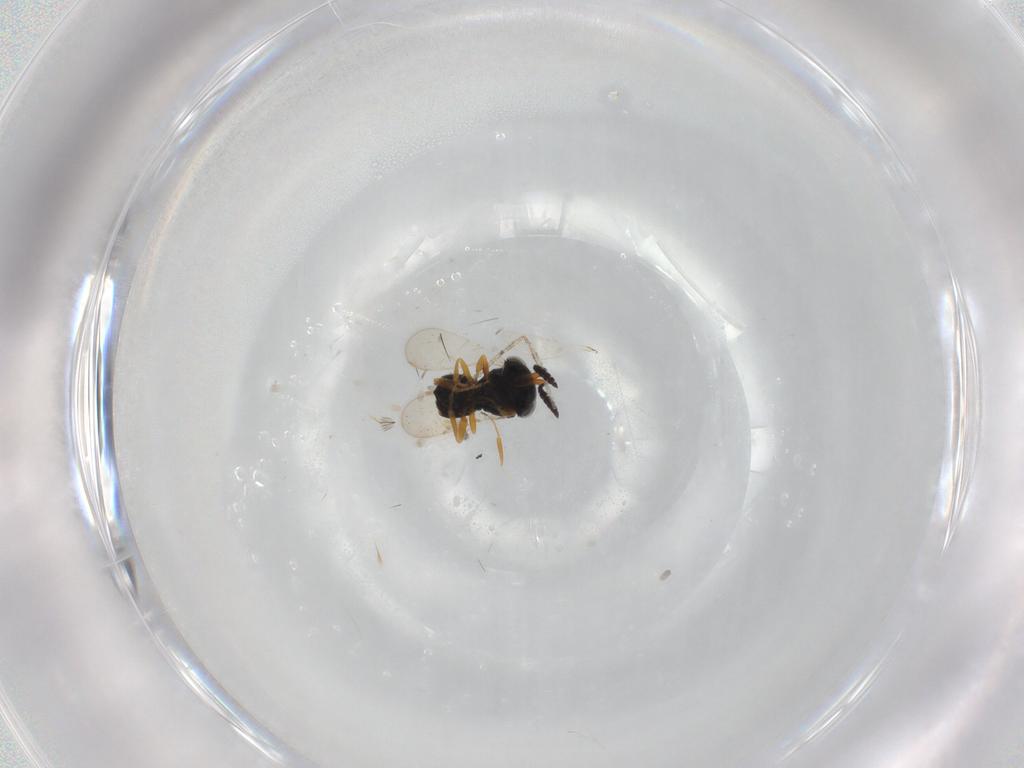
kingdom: Animalia
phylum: Arthropoda
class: Insecta
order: Hymenoptera
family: Scelionidae
